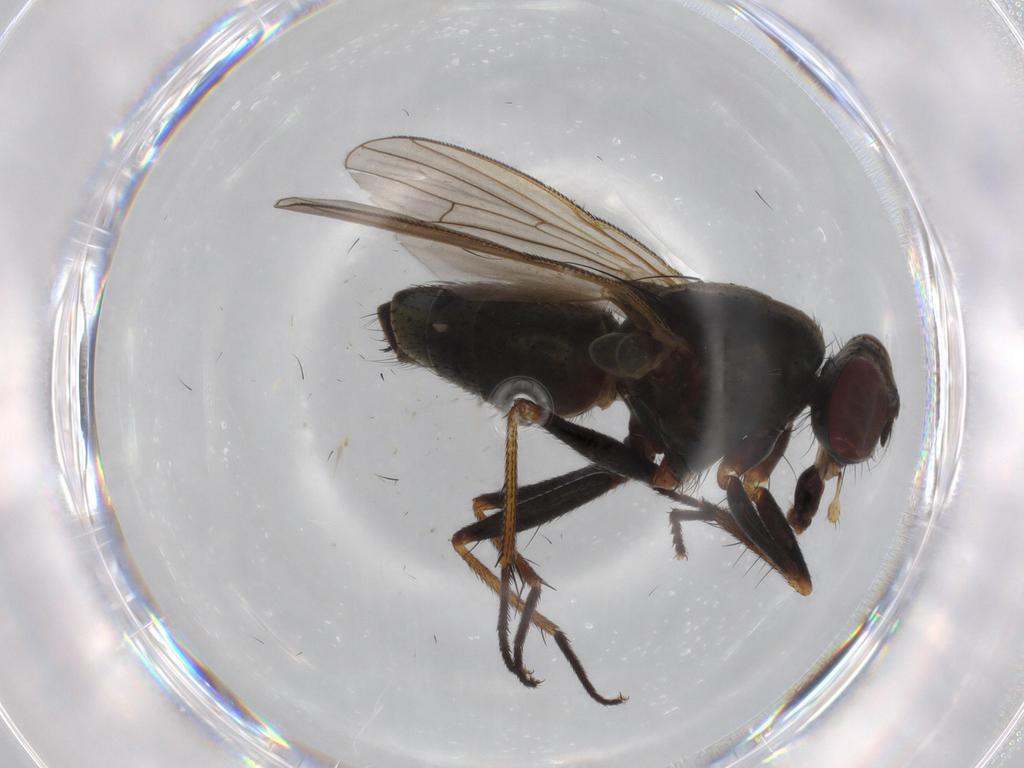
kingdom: Animalia
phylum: Arthropoda
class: Insecta
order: Diptera
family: Muscidae
